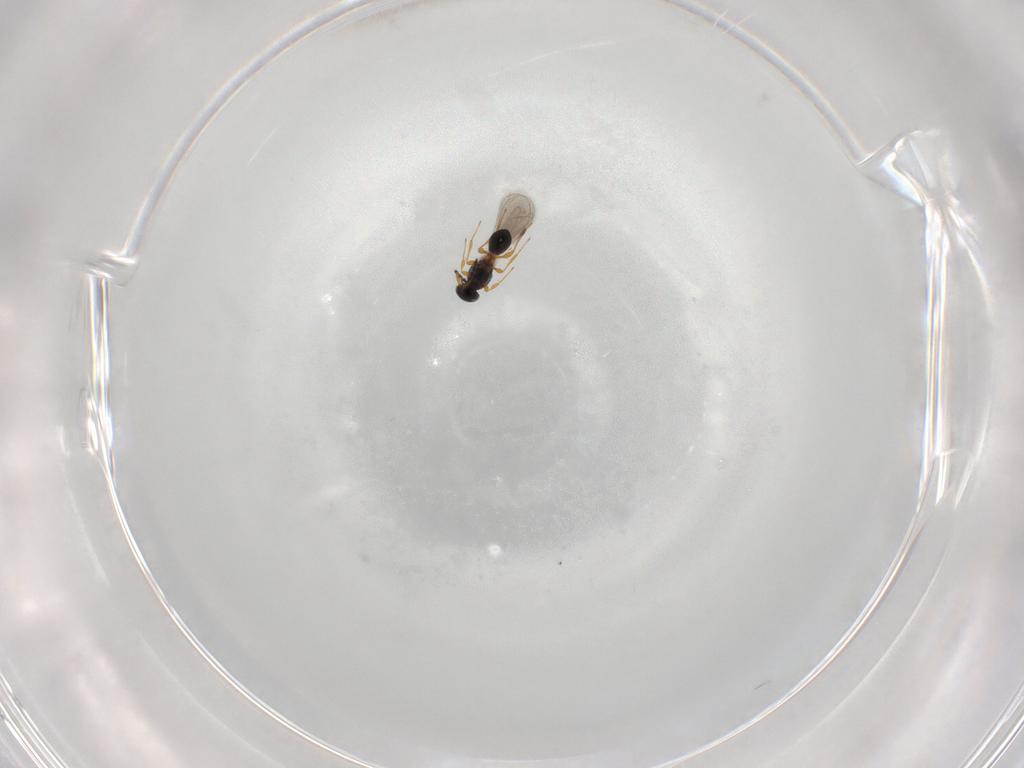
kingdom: Animalia
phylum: Arthropoda
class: Insecta
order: Hymenoptera
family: Platygastridae
